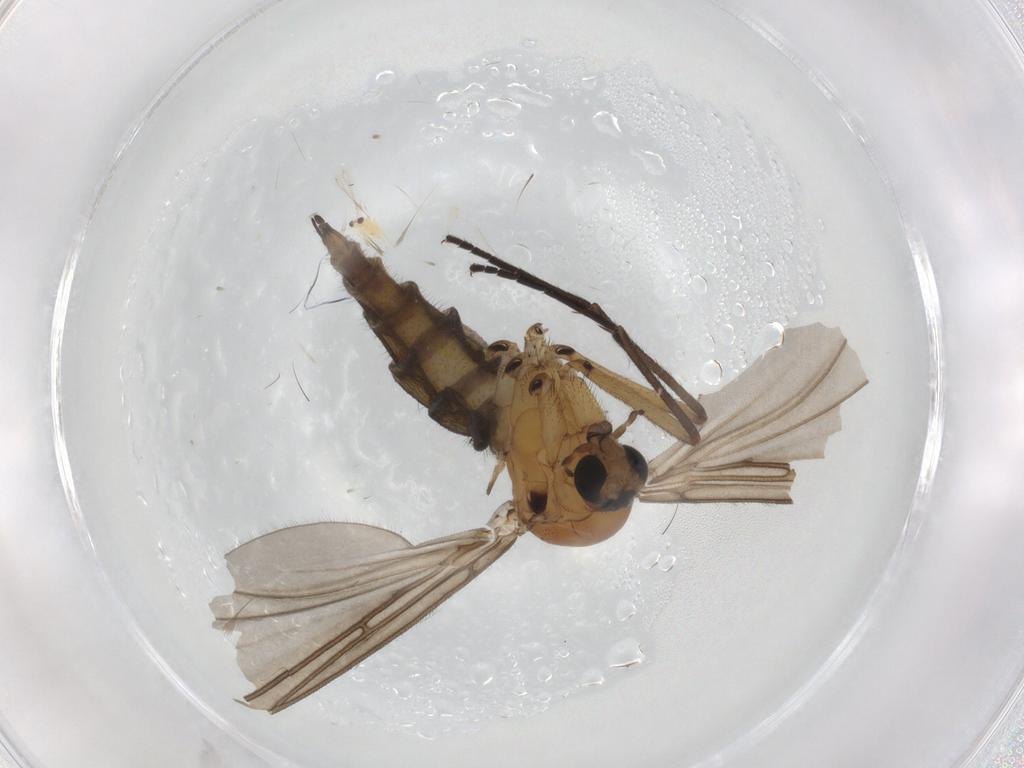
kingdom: Animalia
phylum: Arthropoda
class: Insecta
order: Diptera
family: Sciaridae
